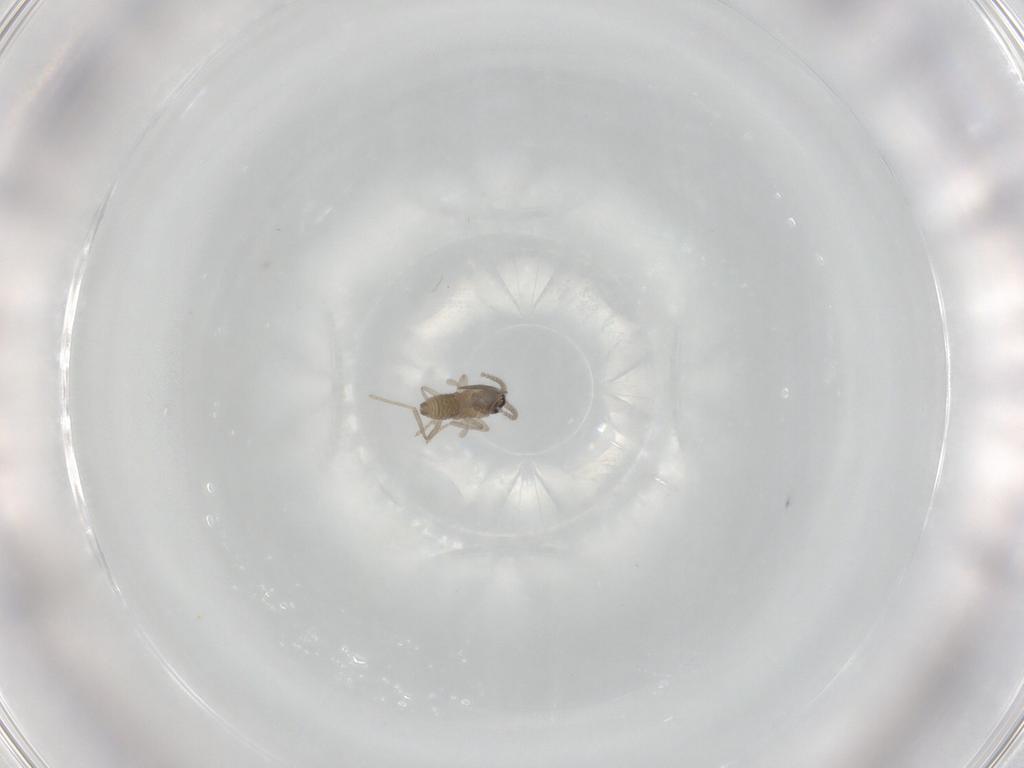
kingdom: Animalia
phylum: Arthropoda
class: Insecta
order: Diptera
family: Cecidomyiidae
